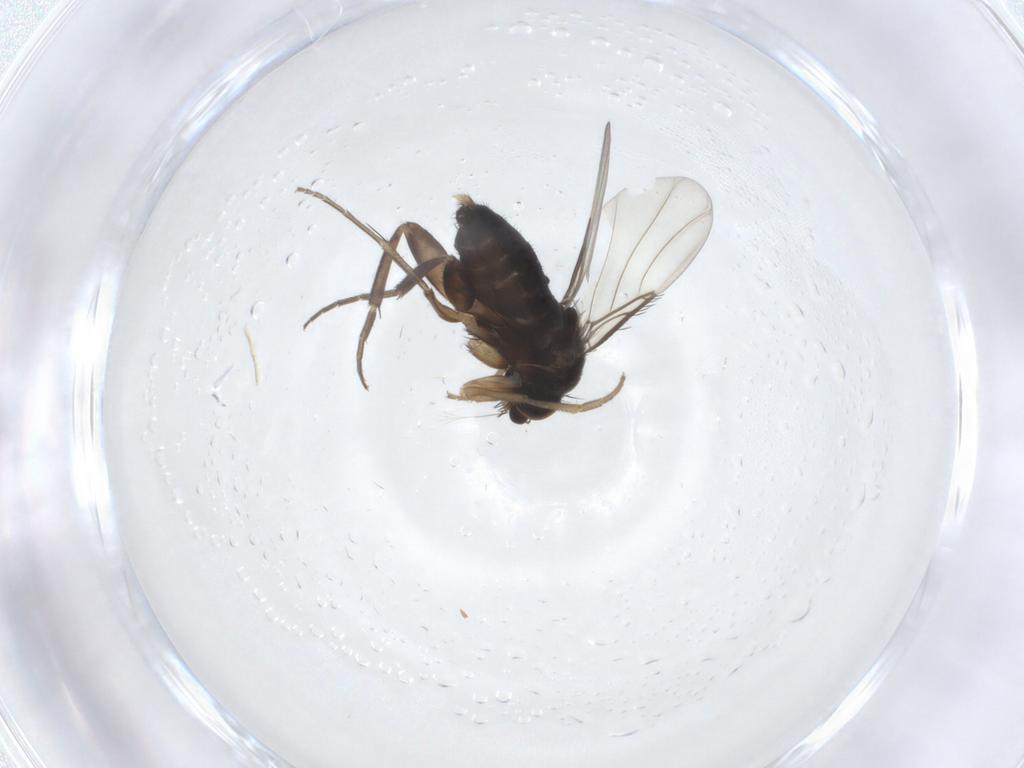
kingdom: Animalia
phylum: Arthropoda
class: Insecta
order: Diptera
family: Phoridae
